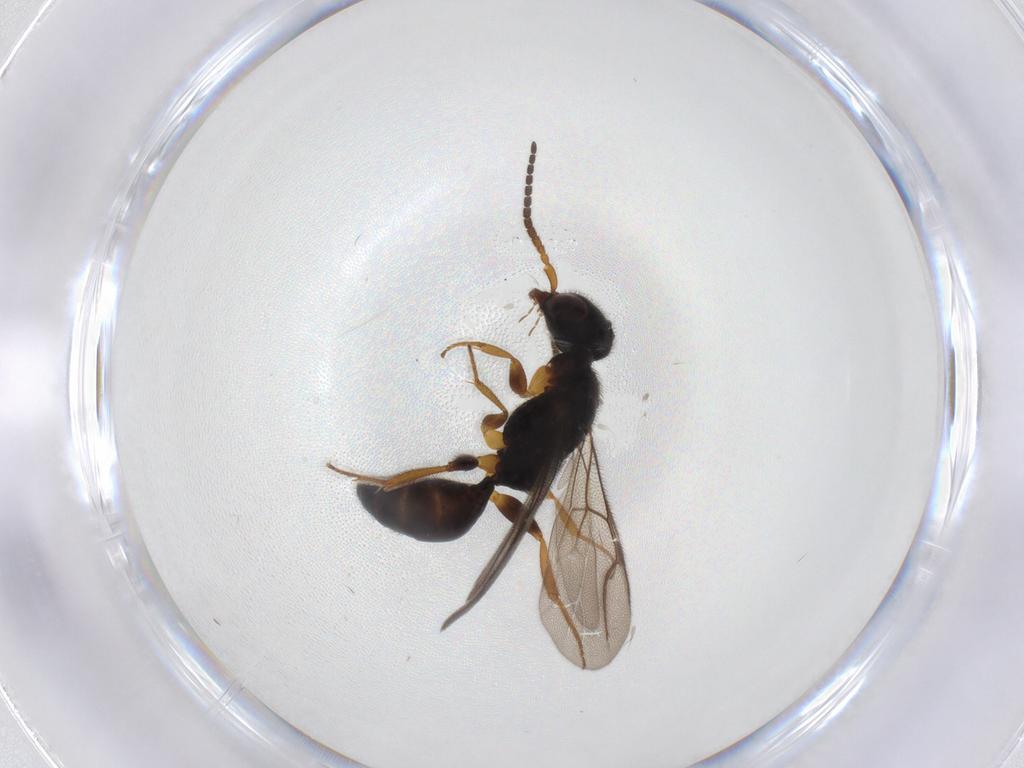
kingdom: Animalia
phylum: Arthropoda
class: Insecta
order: Hymenoptera
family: Bethylidae
